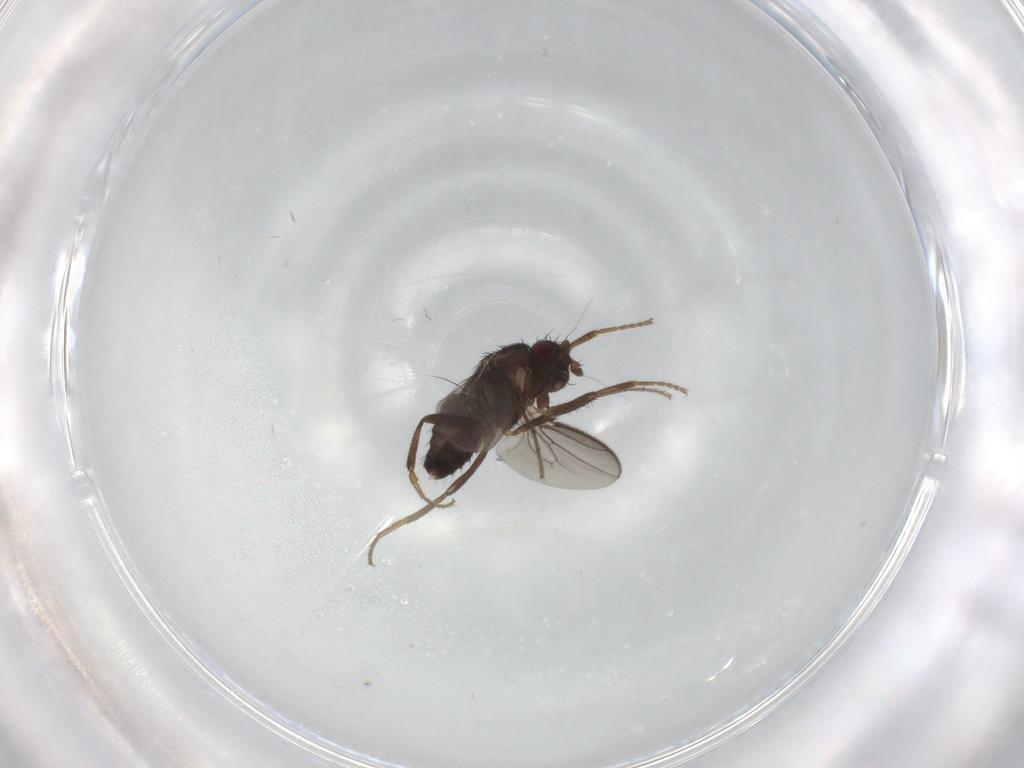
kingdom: Animalia
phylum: Arthropoda
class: Insecta
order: Diptera
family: Sphaeroceridae
